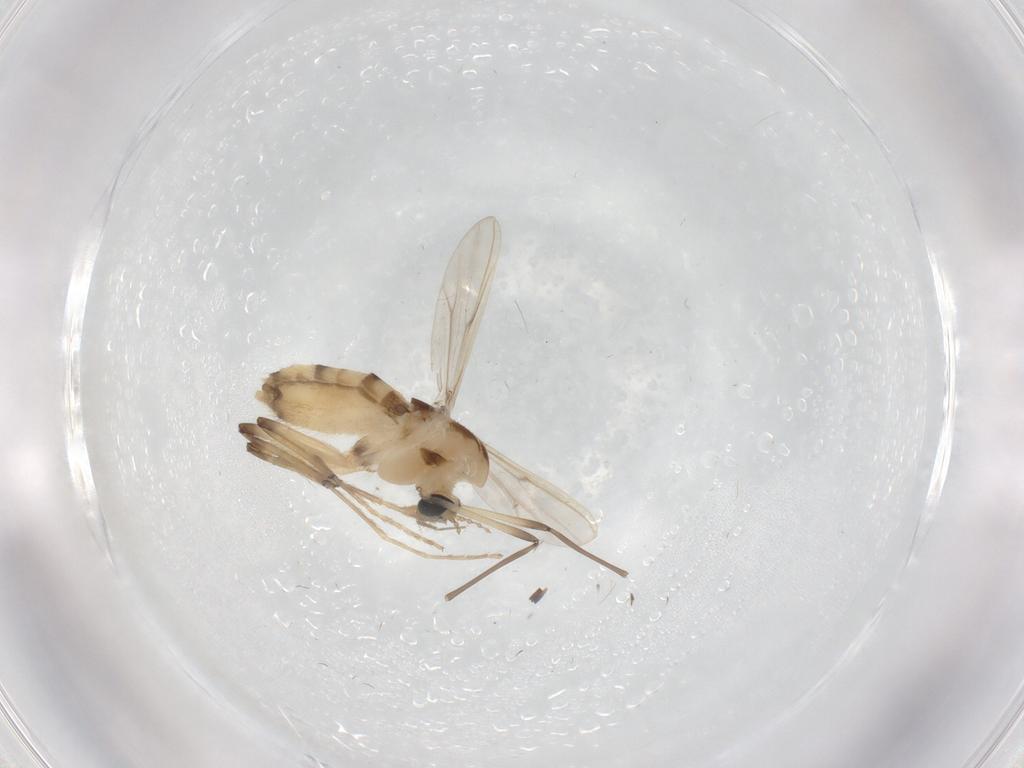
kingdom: Animalia
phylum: Arthropoda
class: Insecta
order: Diptera
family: Chironomidae
